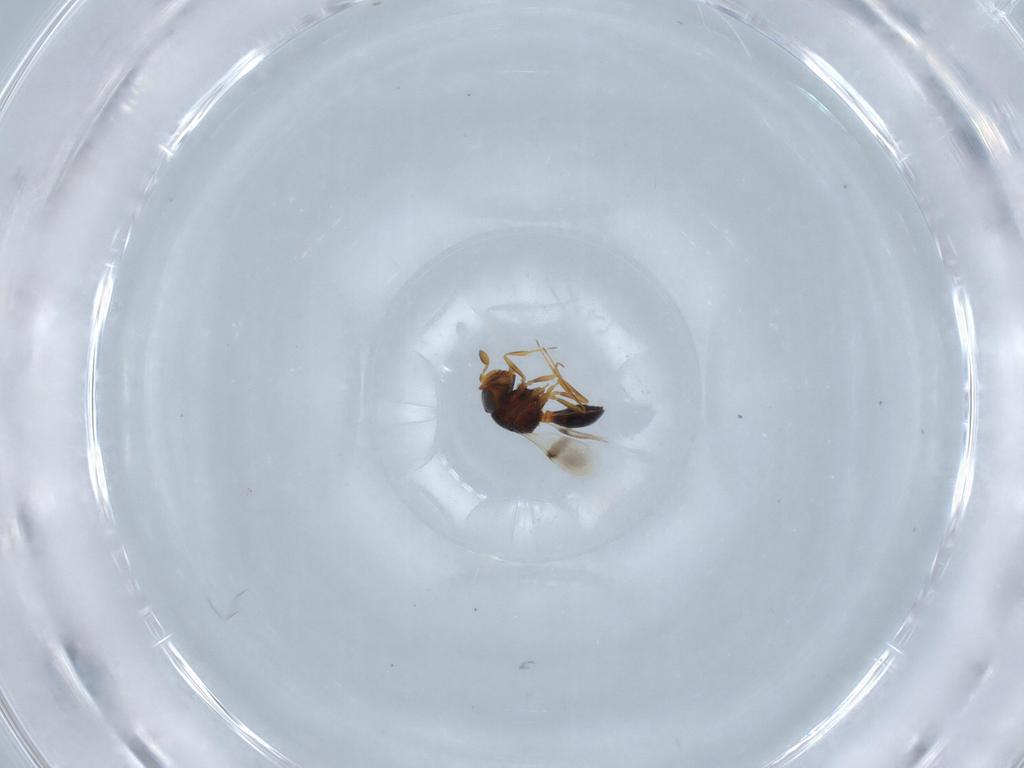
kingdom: Animalia
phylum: Arthropoda
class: Insecta
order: Hymenoptera
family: Scelionidae
